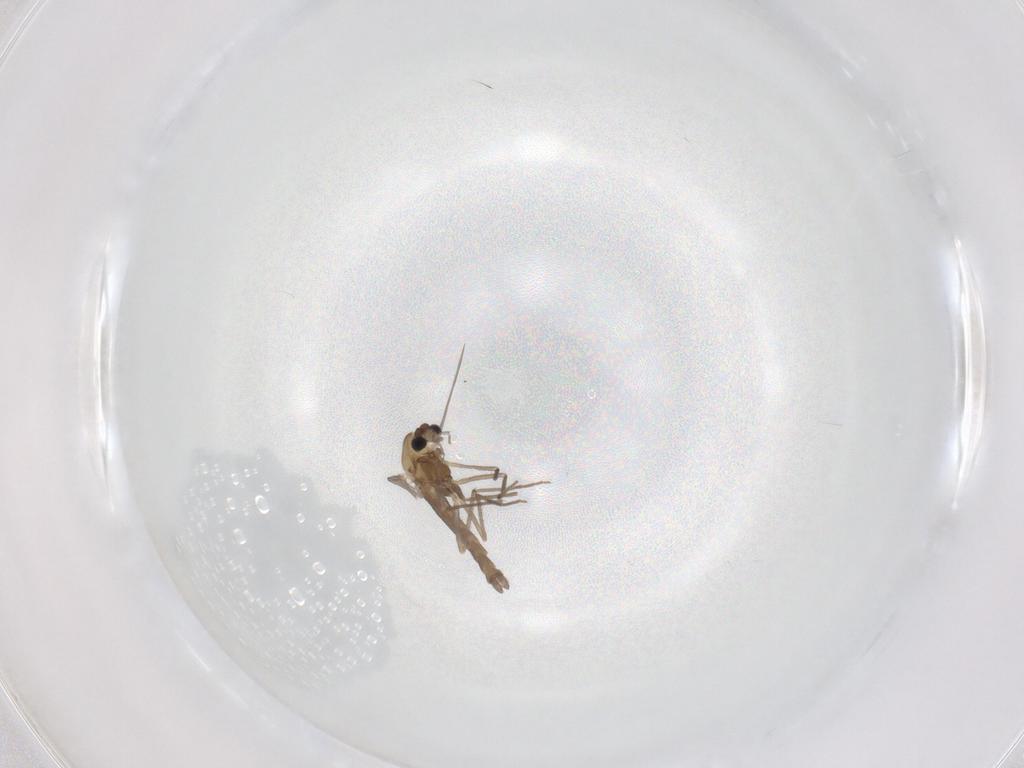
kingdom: Animalia
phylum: Arthropoda
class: Insecta
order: Diptera
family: Chironomidae
